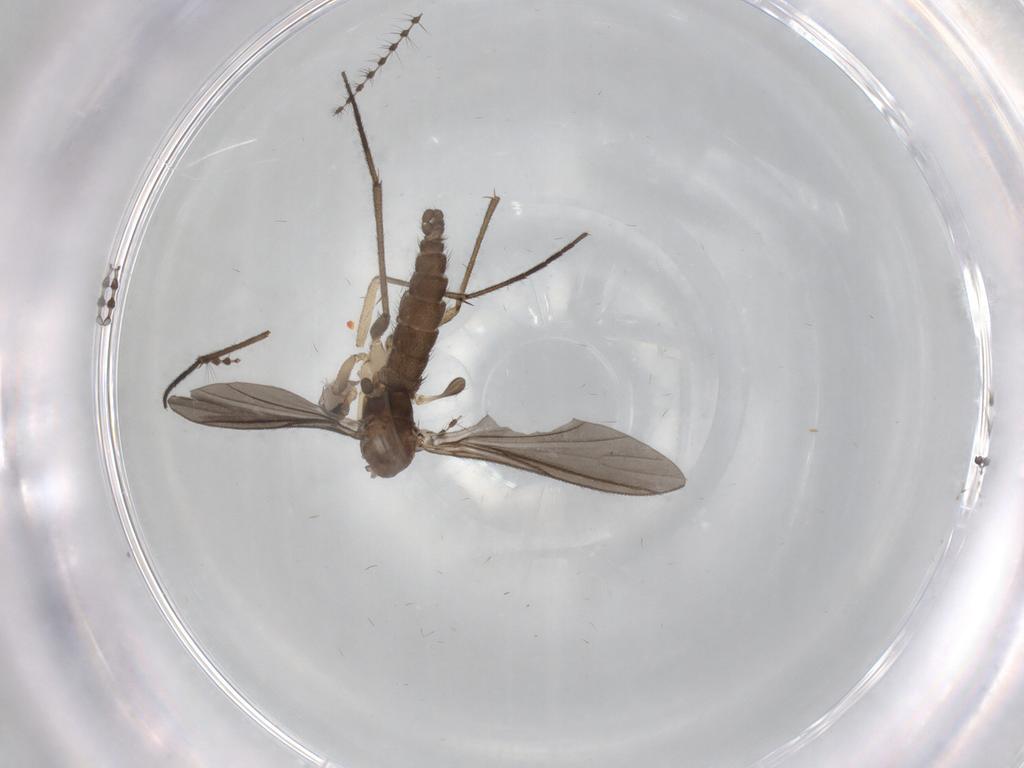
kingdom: Animalia
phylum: Arthropoda
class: Insecta
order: Diptera
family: Sciaridae
